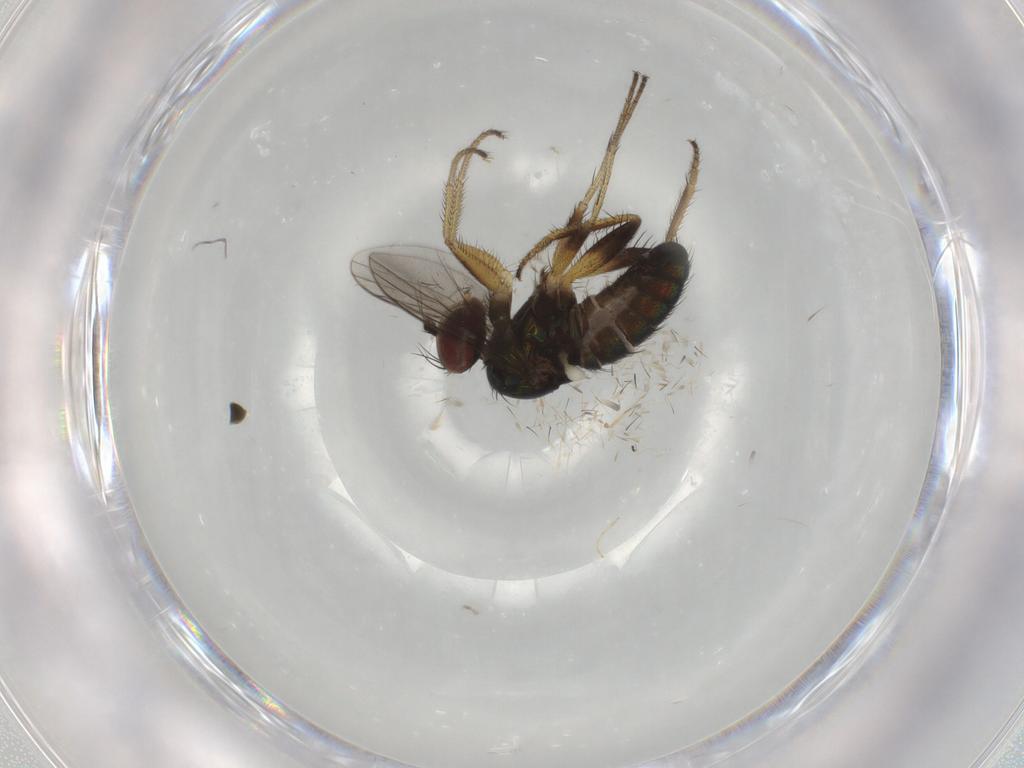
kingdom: Animalia
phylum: Arthropoda
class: Insecta
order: Diptera
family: Dolichopodidae
